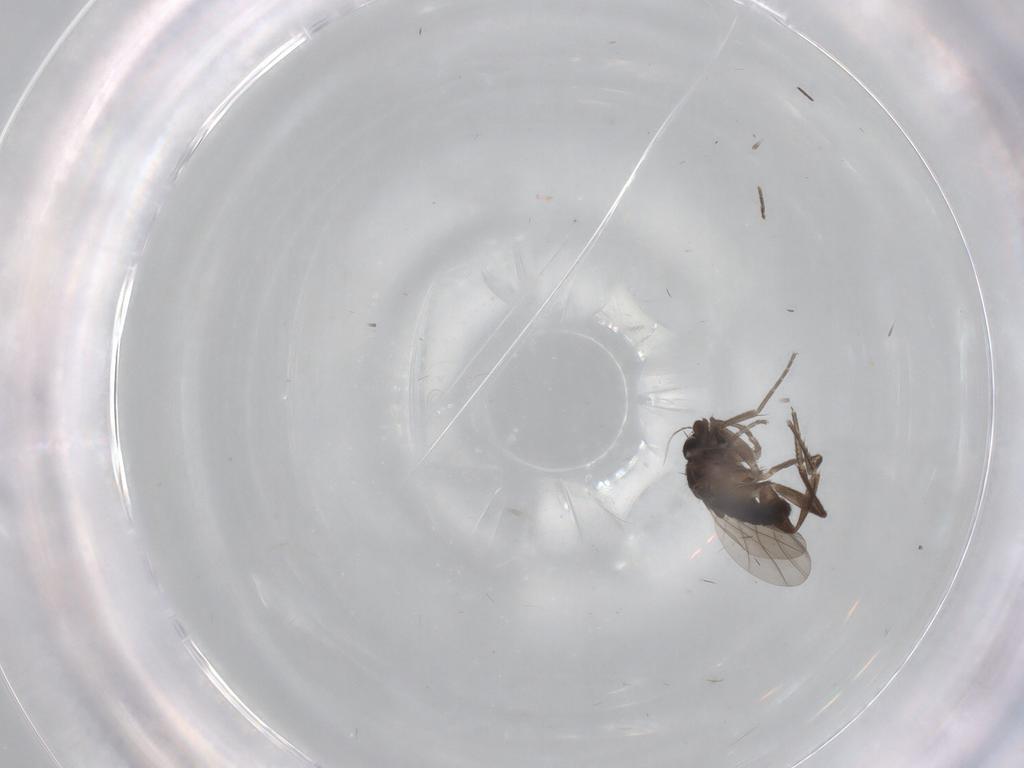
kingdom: Animalia
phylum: Arthropoda
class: Insecta
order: Diptera
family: Phoridae
